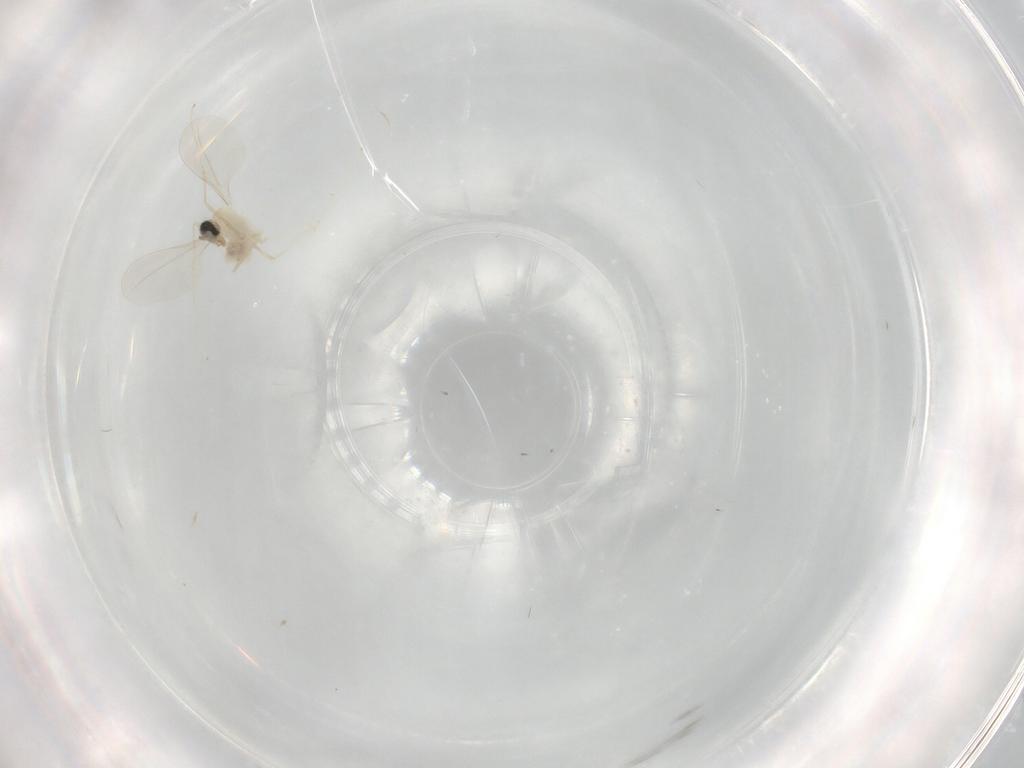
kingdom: Animalia
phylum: Arthropoda
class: Insecta
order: Diptera
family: Cecidomyiidae
